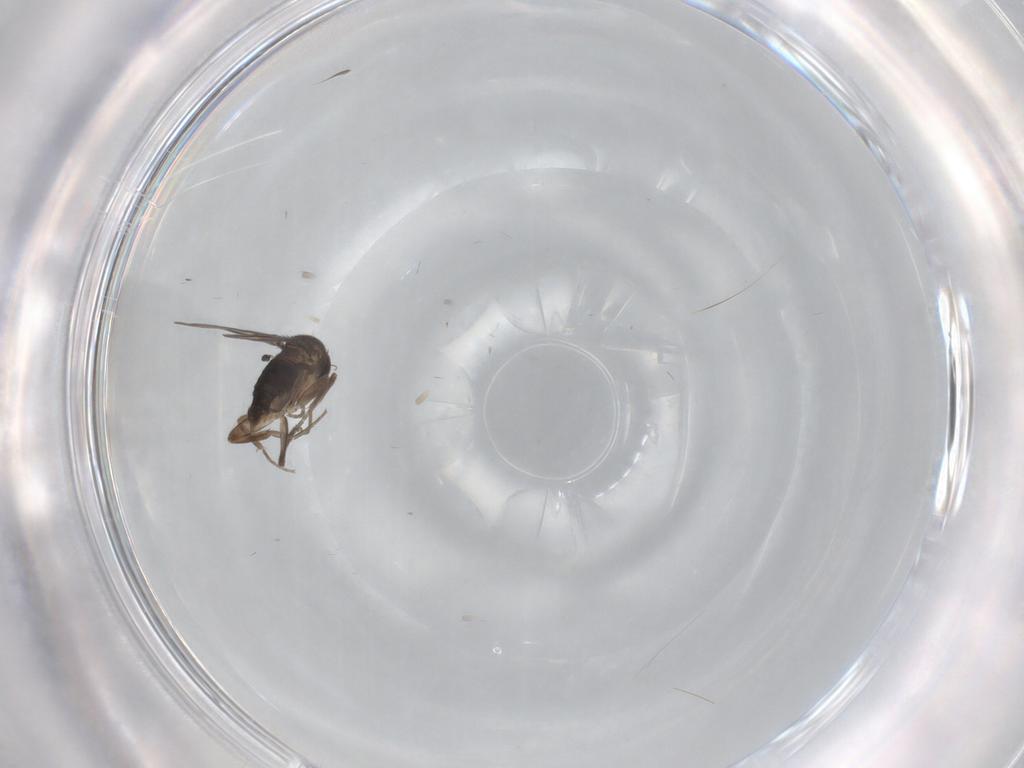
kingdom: Animalia
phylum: Arthropoda
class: Insecta
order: Diptera
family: Phoridae
